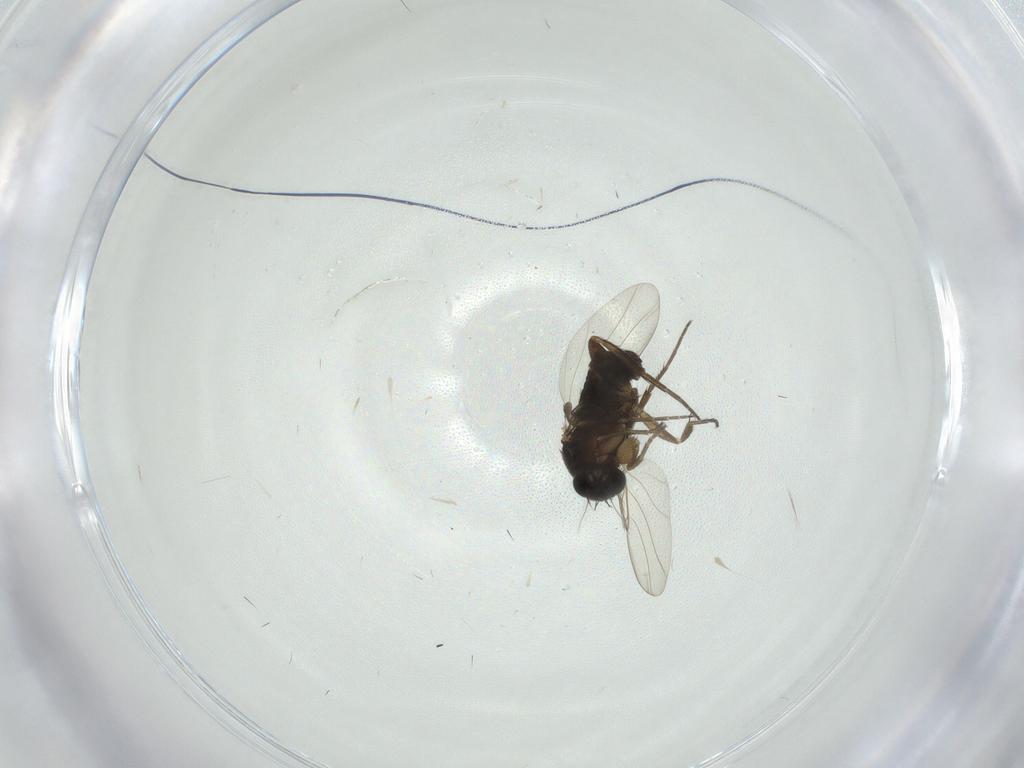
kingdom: Animalia
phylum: Arthropoda
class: Insecta
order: Diptera
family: Phoridae
